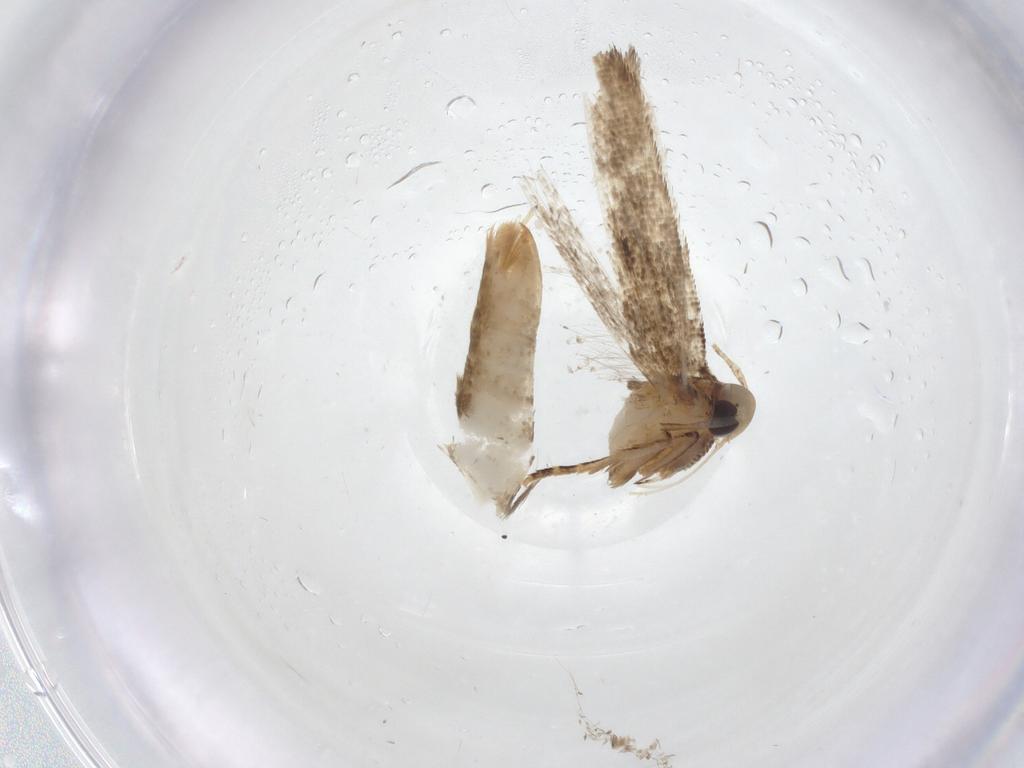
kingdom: Animalia
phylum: Arthropoda
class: Insecta
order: Lepidoptera
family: Cosmopterigidae
